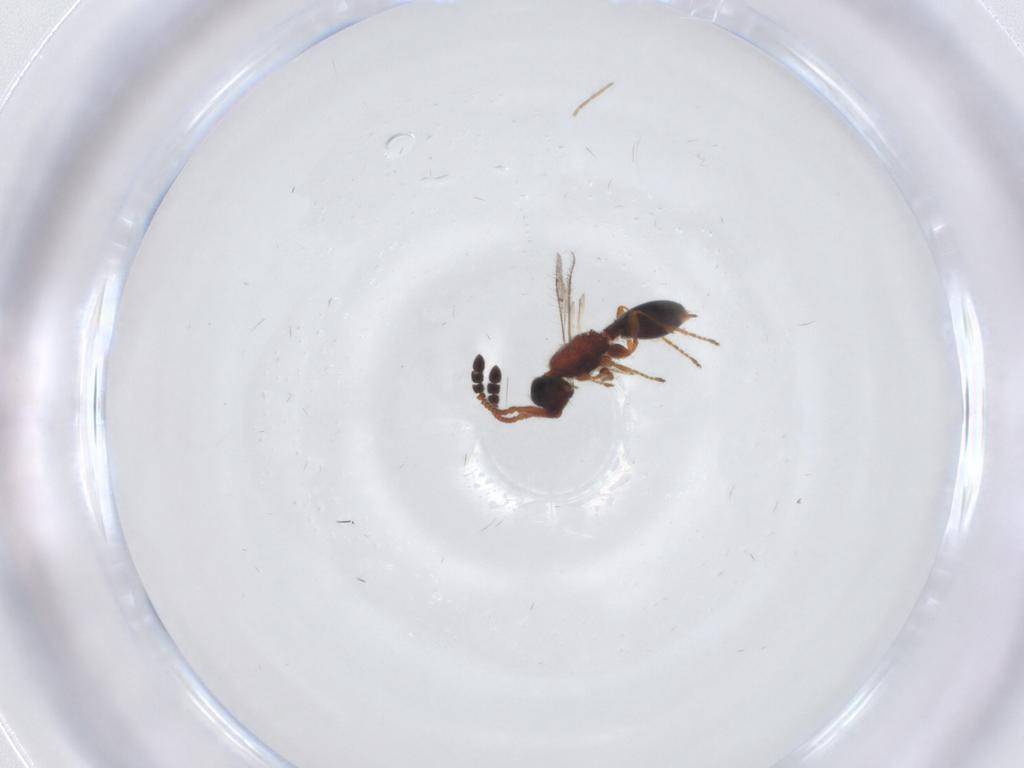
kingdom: Animalia
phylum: Arthropoda
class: Insecta
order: Hymenoptera
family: Diapriidae
